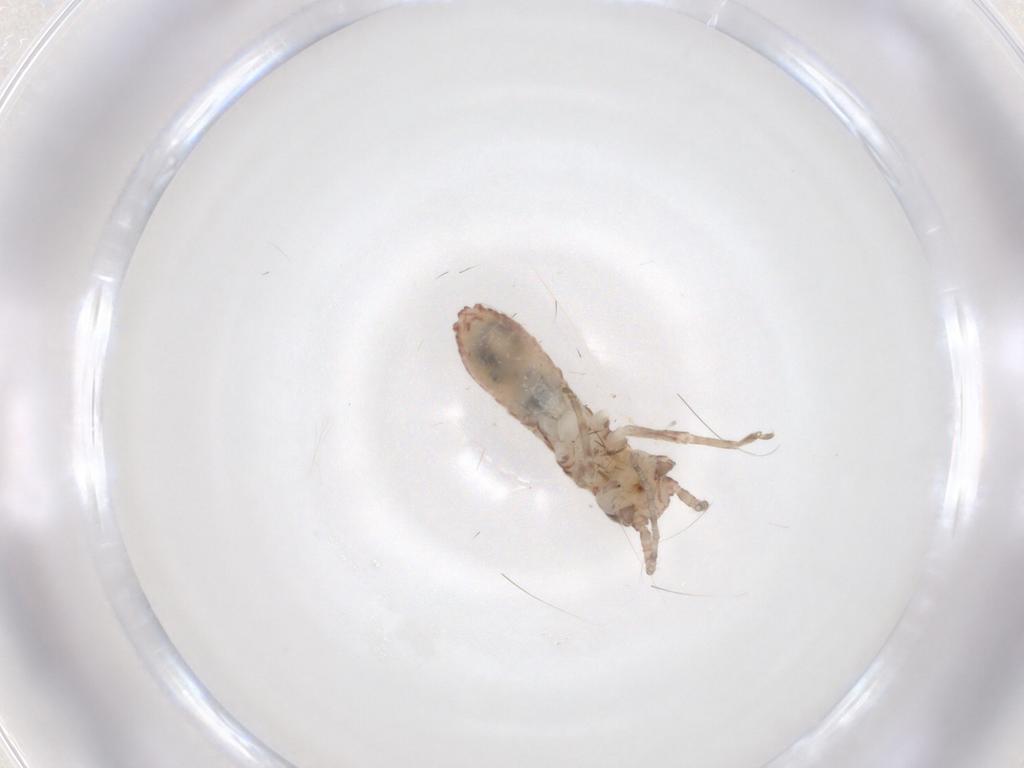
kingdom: Animalia
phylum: Arthropoda
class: Insecta
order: Orthoptera
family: Mogoplistidae
